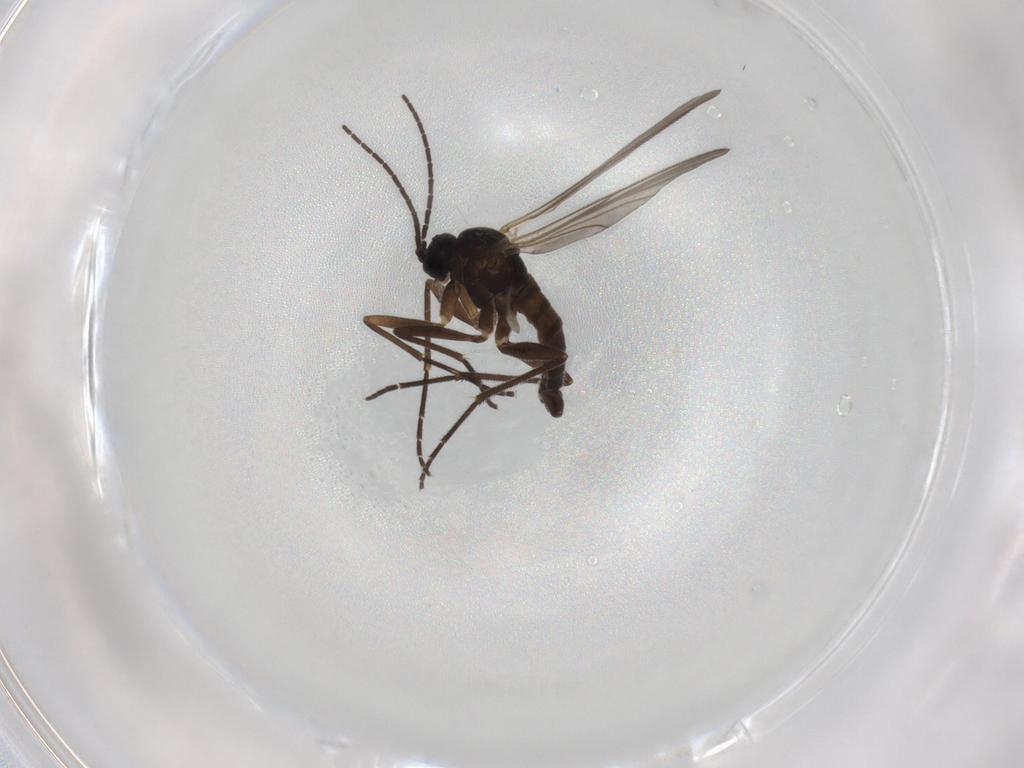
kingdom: Animalia
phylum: Arthropoda
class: Insecta
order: Diptera
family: Sciaridae
